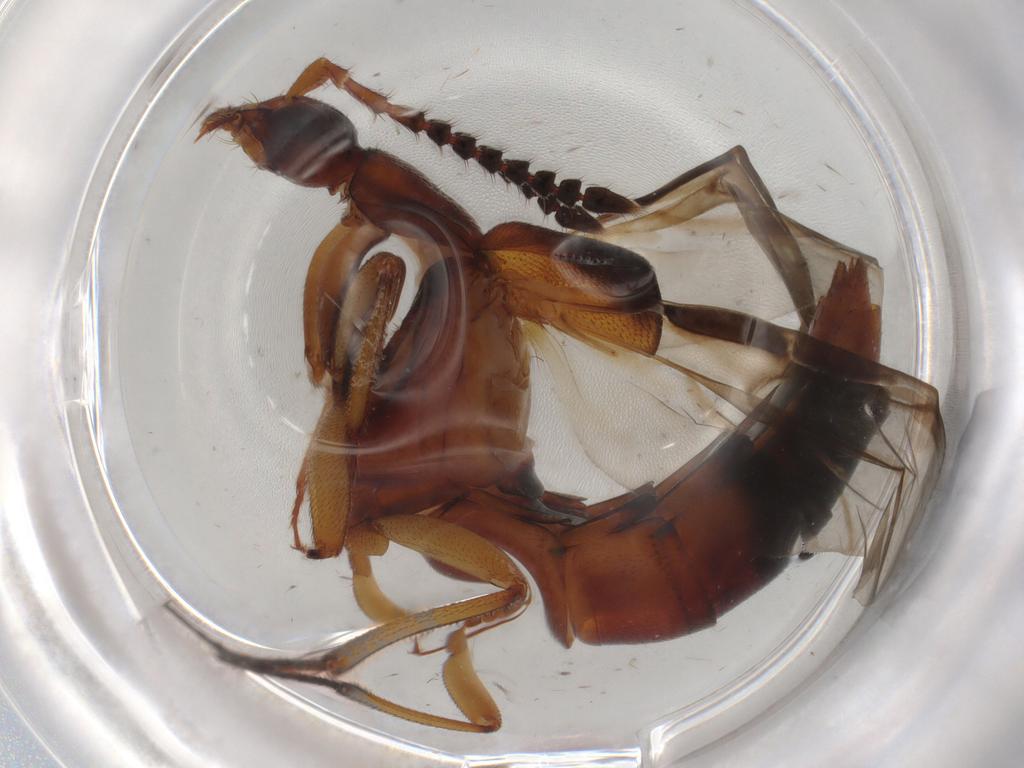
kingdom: Animalia
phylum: Arthropoda
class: Insecta
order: Coleoptera
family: Staphylinidae
